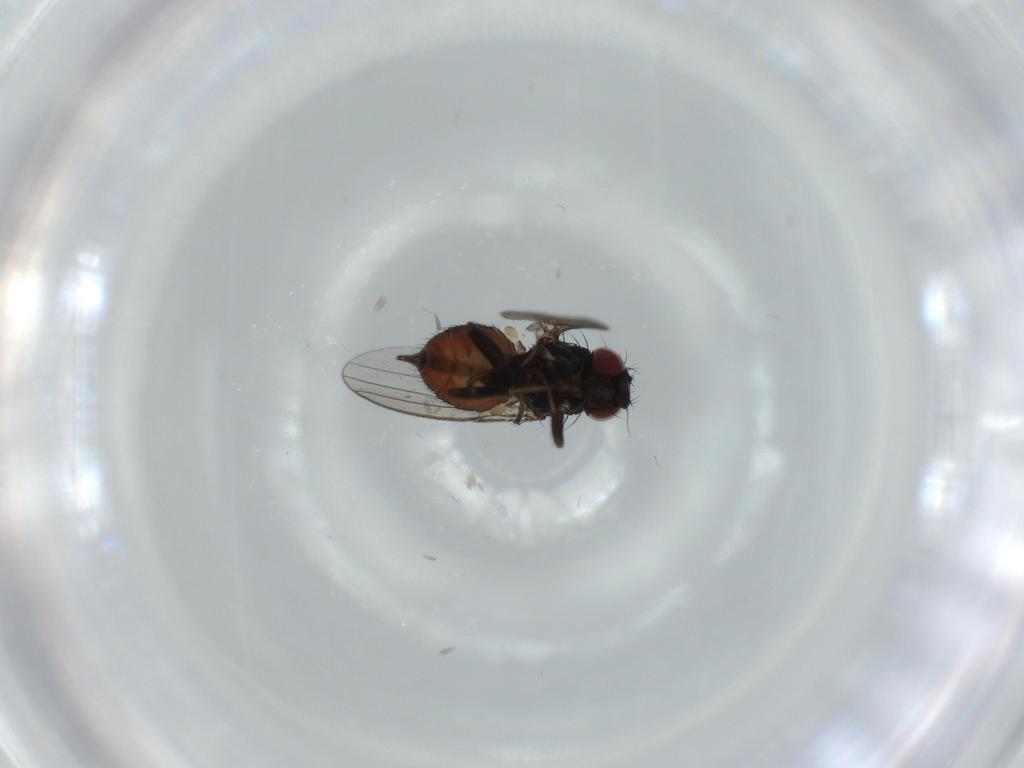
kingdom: Animalia
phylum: Arthropoda
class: Insecta
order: Diptera
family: Milichiidae
